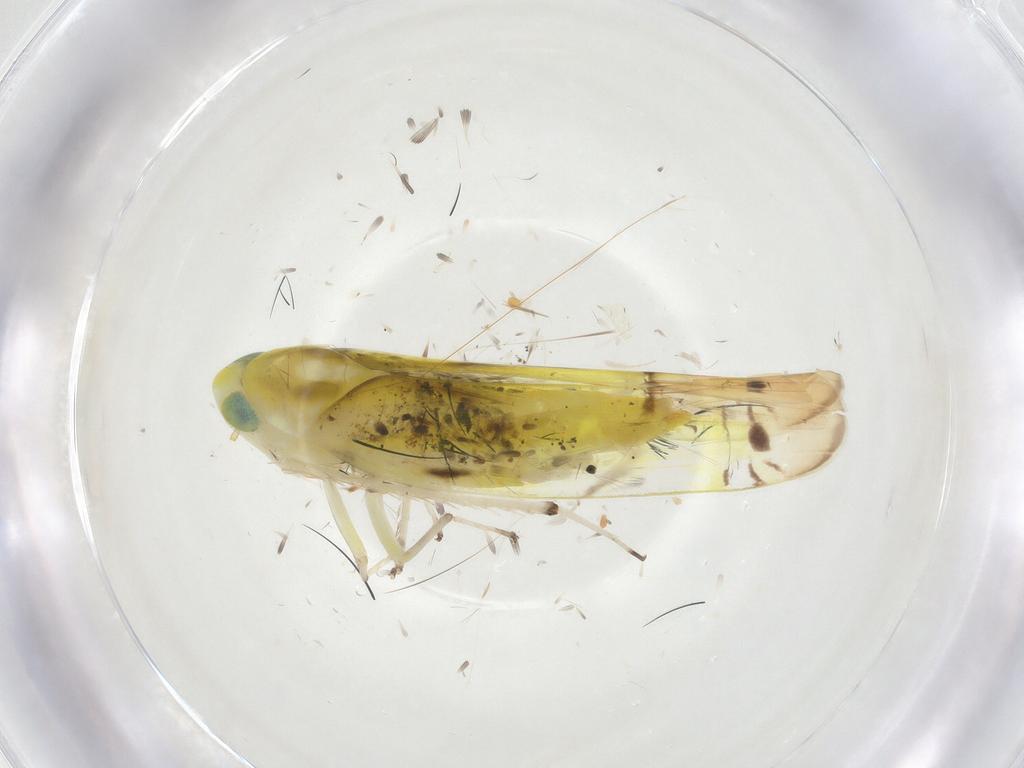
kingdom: Animalia
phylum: Arthropoda
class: Insecta
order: Hemiptera
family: Cicadellidae
